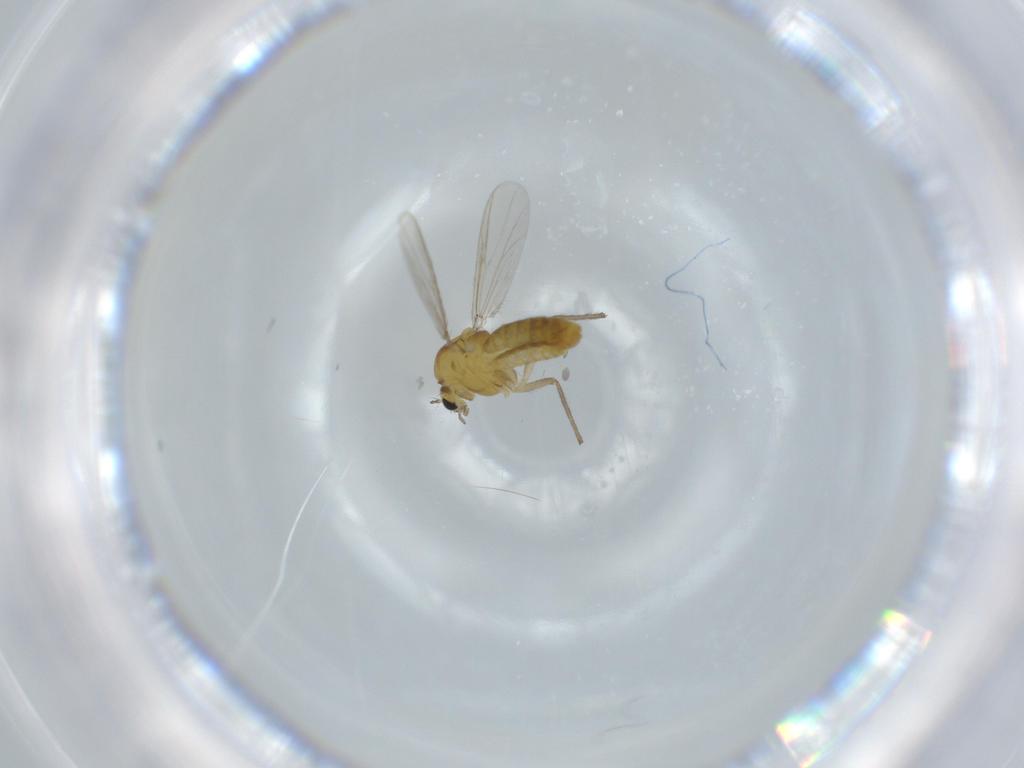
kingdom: Animalia
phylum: Arthropoda
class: Insecta
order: Diptera
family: Chironomidae
